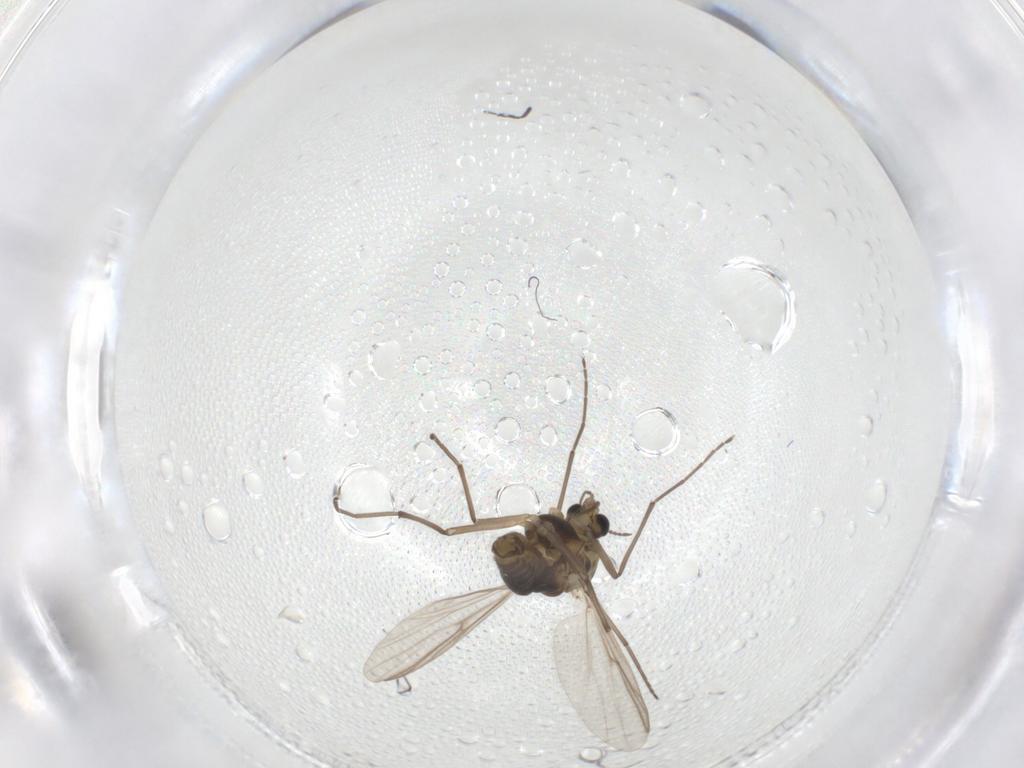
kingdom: Animalia
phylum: Arthropoda
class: Insecta
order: Diptera
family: Chironomidae
